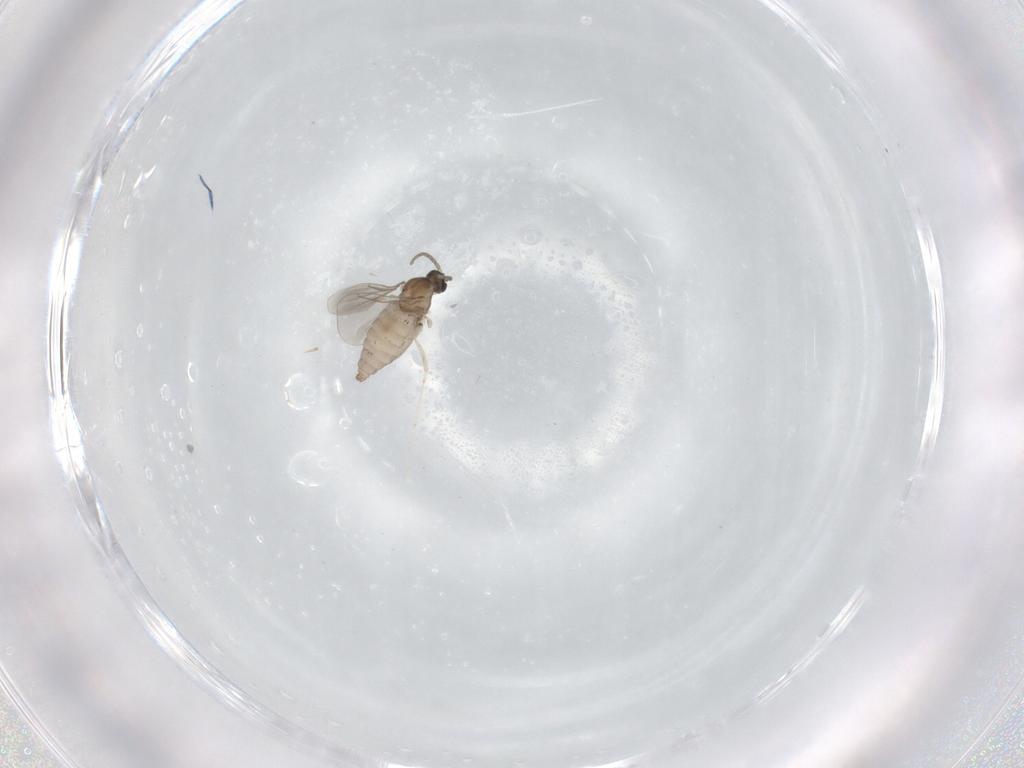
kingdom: Animalia
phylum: Arthropoda
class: Insecta
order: Diptera
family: Cecidomyiidae
